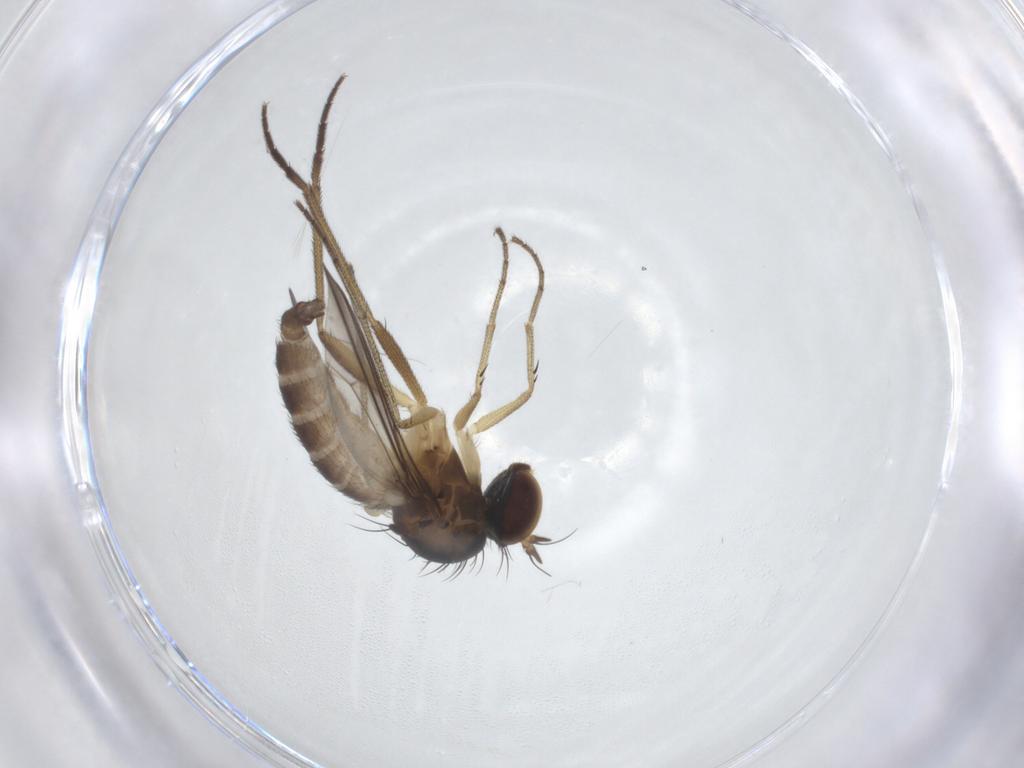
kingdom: Animalia
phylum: Arthropoda
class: Insecta
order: Diptera
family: Dolichopodidae
